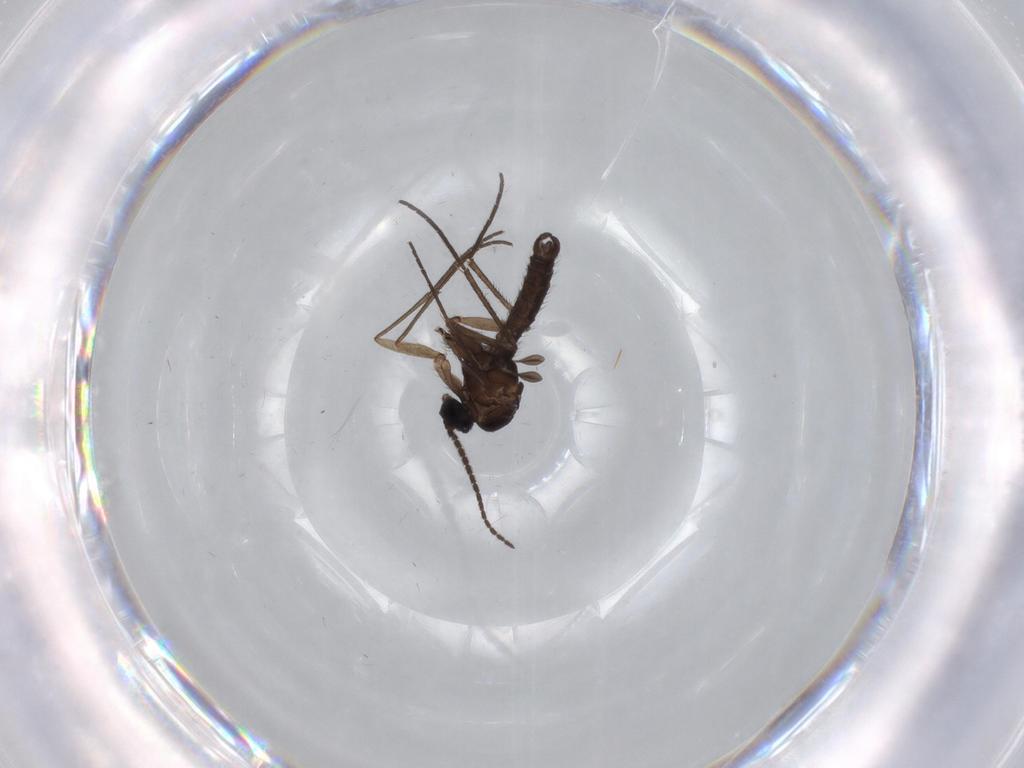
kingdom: Animalia
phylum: Arthropoda
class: Insecta
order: Diptera
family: Sciaridae
